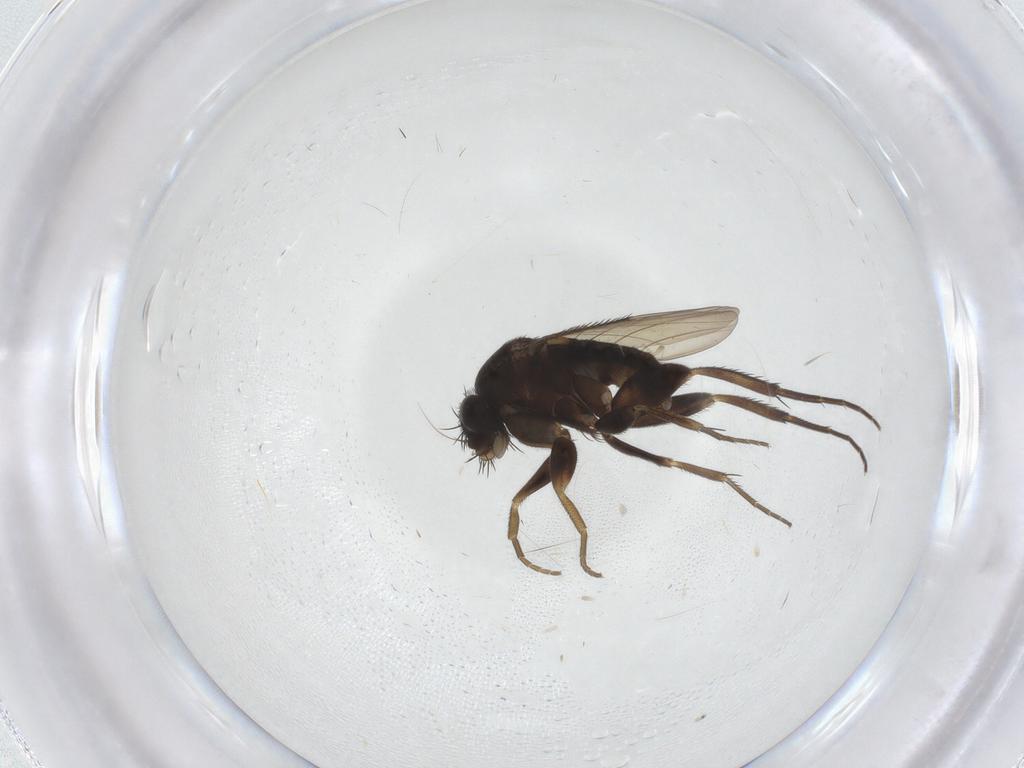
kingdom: Animalia
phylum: Arthropoda
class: Insecta
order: Diptera
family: Phoridae
